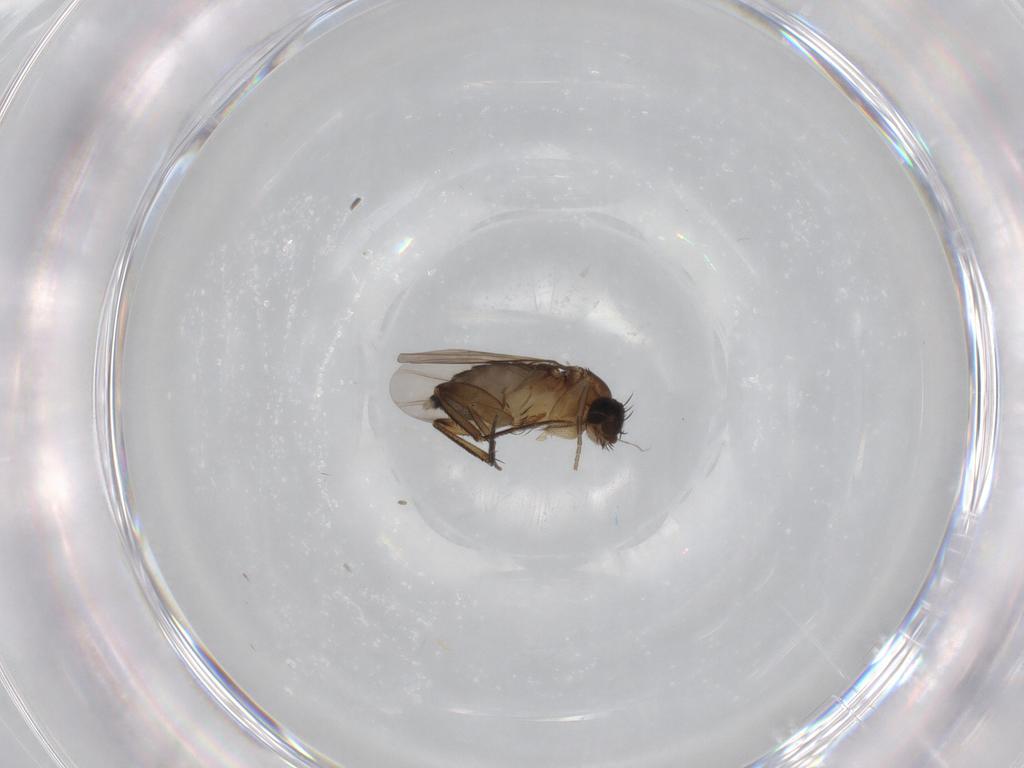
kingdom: Animalia
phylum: Arthropoda
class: Insecta
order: Diptera
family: Phoridae
